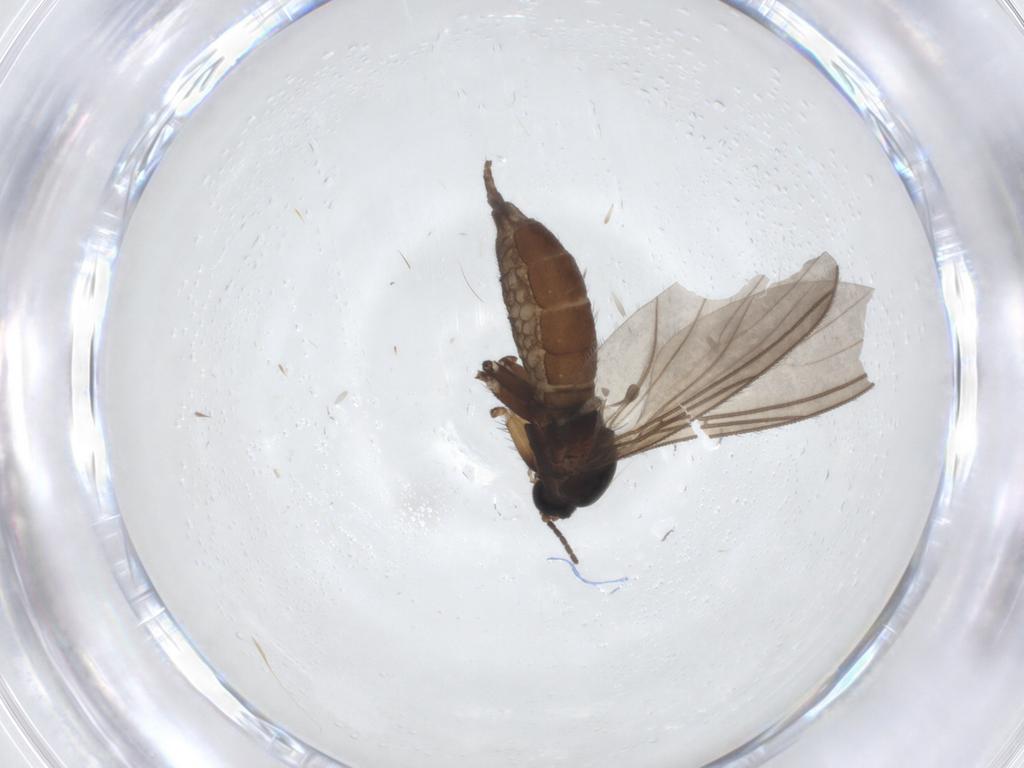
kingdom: Animalia
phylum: Arthropoda
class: Insecta
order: Diptera
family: Sciaridae
